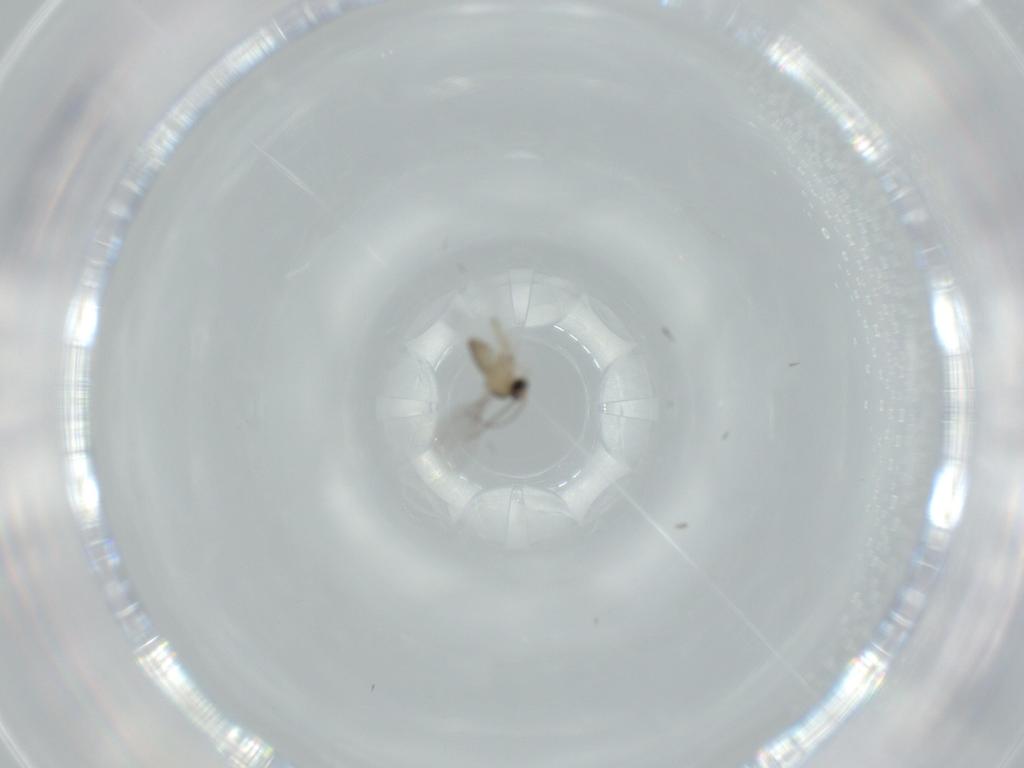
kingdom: Animalia
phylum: Arthropoda
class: Insecta
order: Diptera
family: Cecidomyiidae
